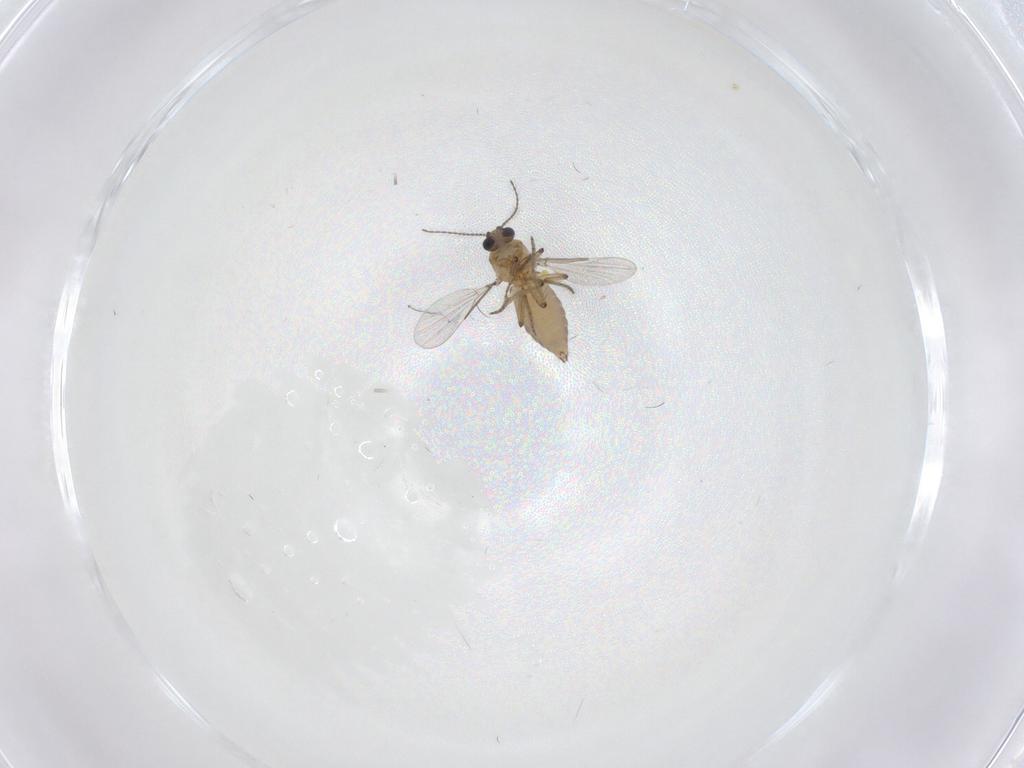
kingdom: Animalia
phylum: Arthropoda
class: Insecta
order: Diptera
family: Ceratopogonidae
